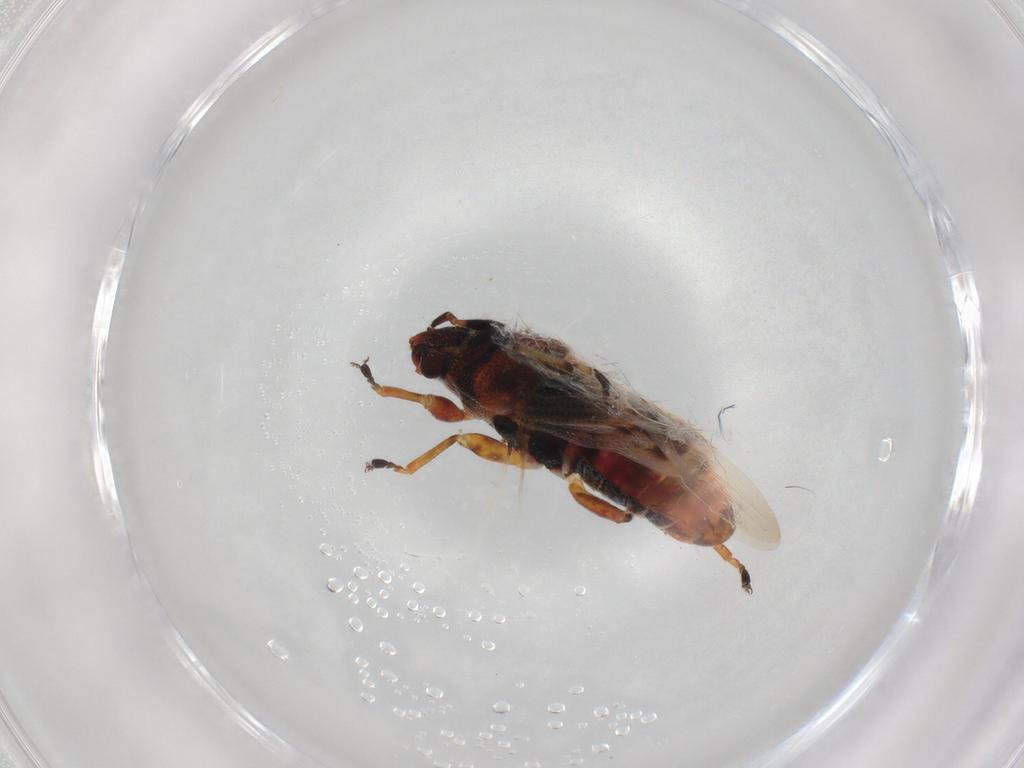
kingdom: Animalia
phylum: Arthropoda
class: Insecta
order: Hemiptera
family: Rhyparochromidae
